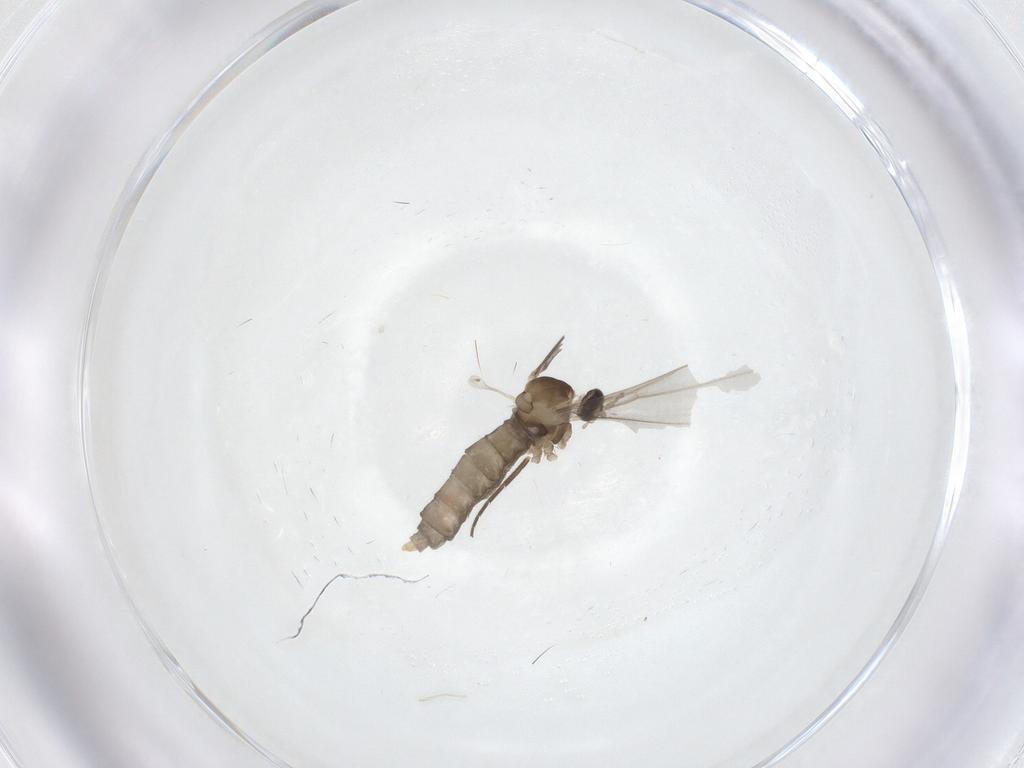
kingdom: Animalia
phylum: Arthropoda
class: Insecta
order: Diptera
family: Cecidomyiidae
